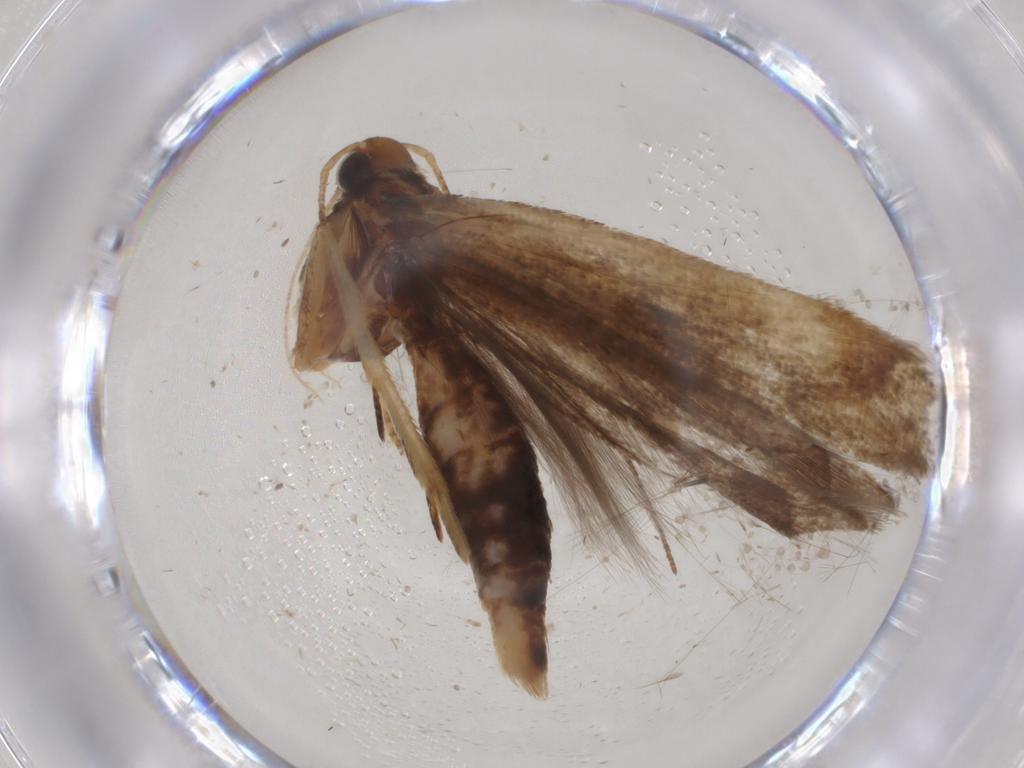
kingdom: Animalia
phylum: Arthropoda
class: Insecta
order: Lepidoptera
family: Gelechiidae
